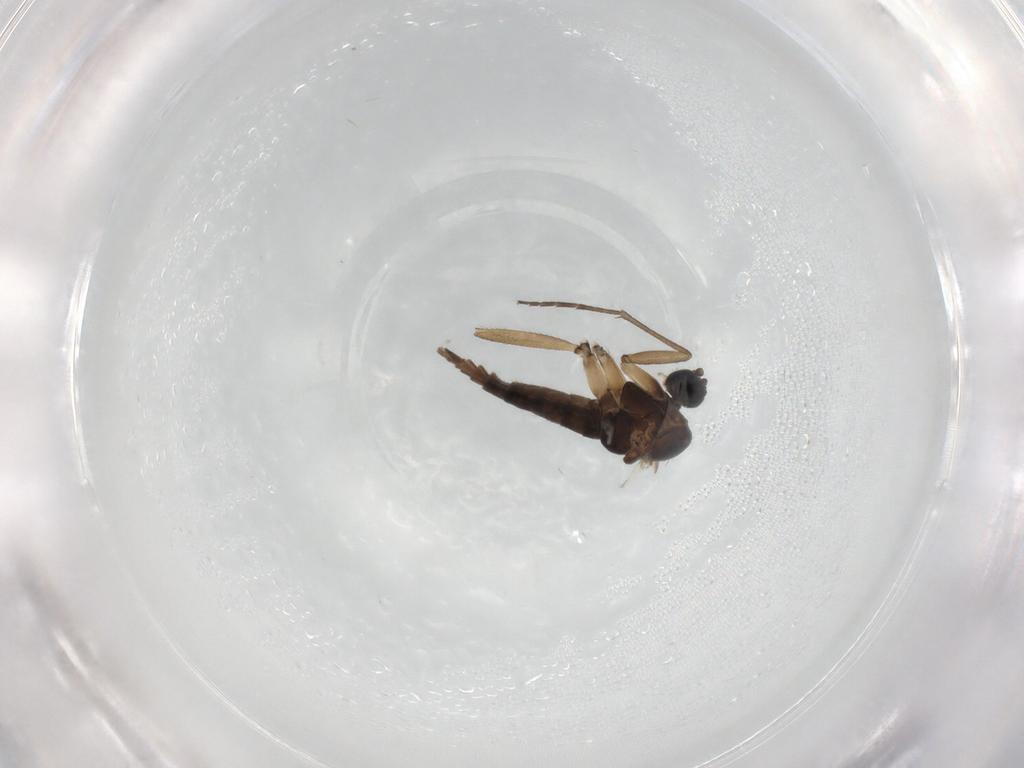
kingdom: Animalia
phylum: Arthropoda
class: Insecta
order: Diptera
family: Sciaridae
